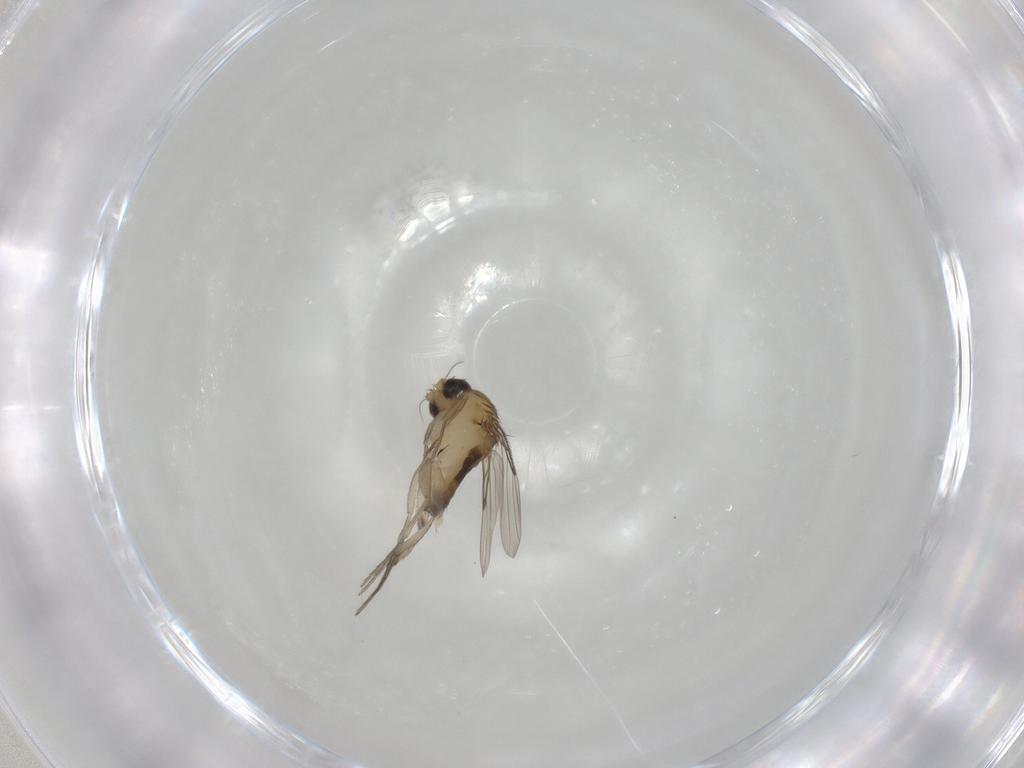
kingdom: Animalia
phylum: Arthropoda
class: Insecta
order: Diptera
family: Phoridae
